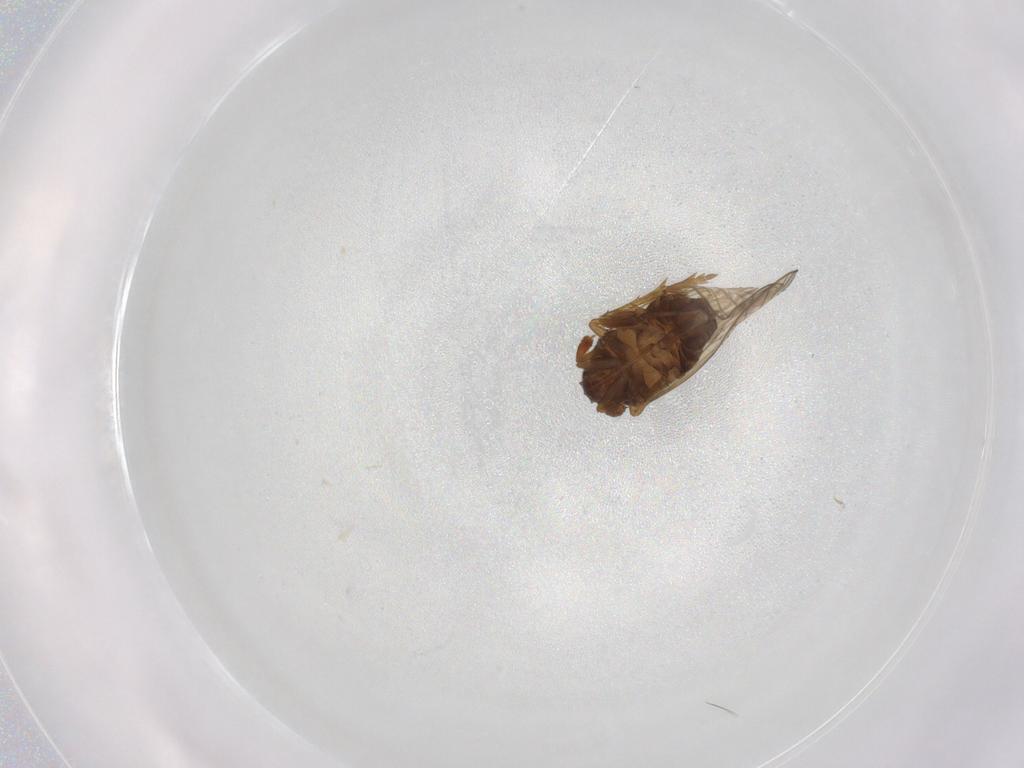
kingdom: Animalia
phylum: Arthropoda
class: Insecta
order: Hemiptera
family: Delphacidae
